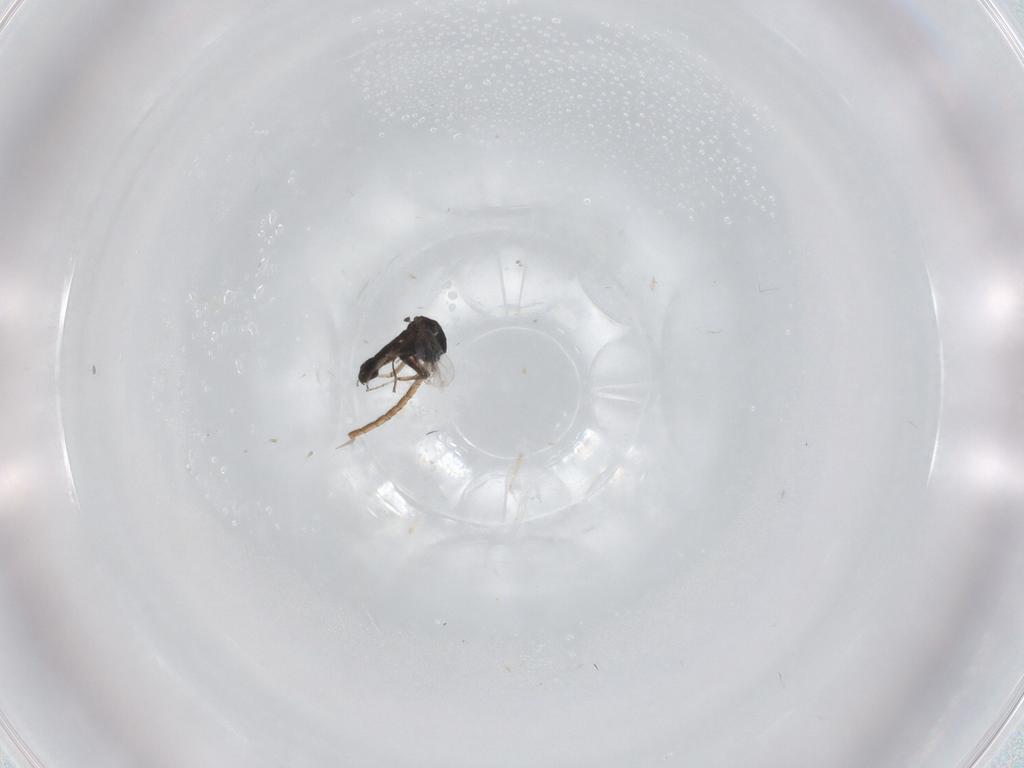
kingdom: Animalia
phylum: Arthropoda
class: Insecta
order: Diptera
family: Ceratopogonidae
